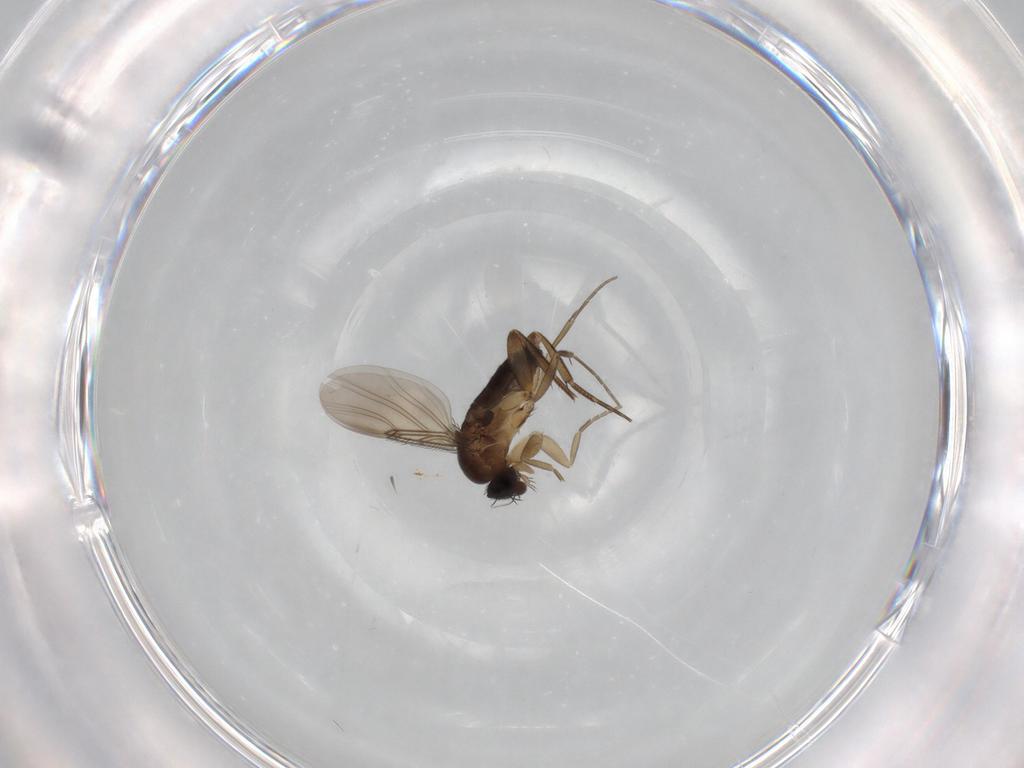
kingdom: Animalia
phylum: Arthropoda
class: Insecta
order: Diptera
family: Phoridae
